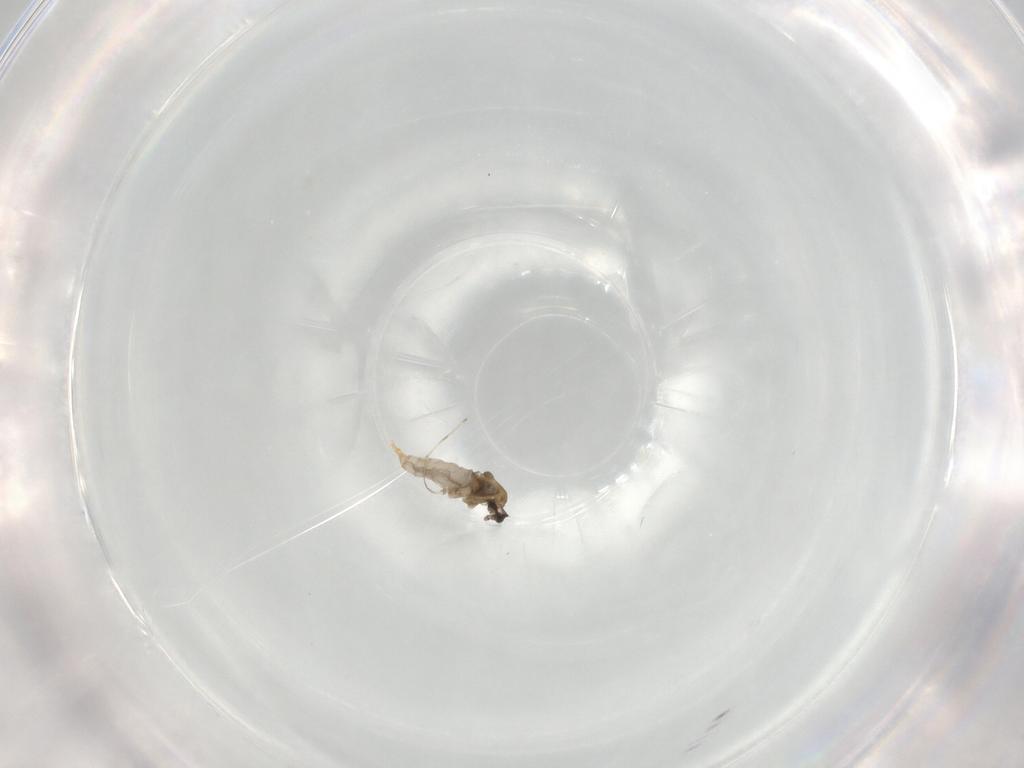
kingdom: Animalia
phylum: Arthropoda
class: Insecta
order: Diptera
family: Cecidomyiidae
